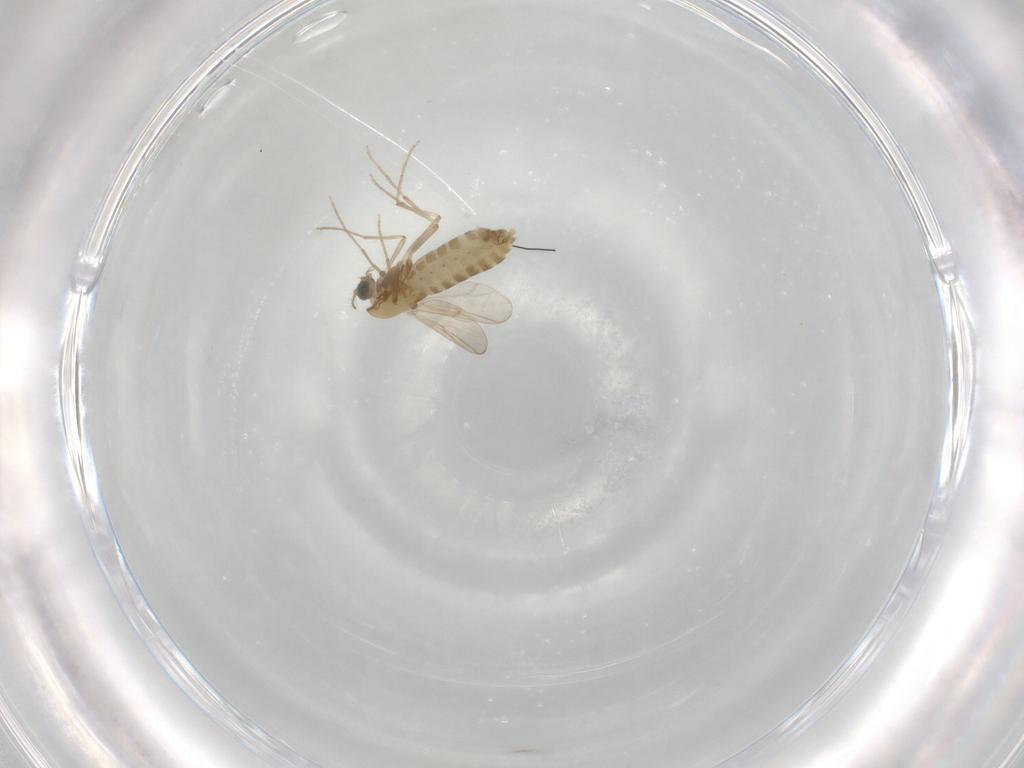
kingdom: Animalia
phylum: Arthropoda
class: Insecta
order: Diptera
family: Chironomidae
